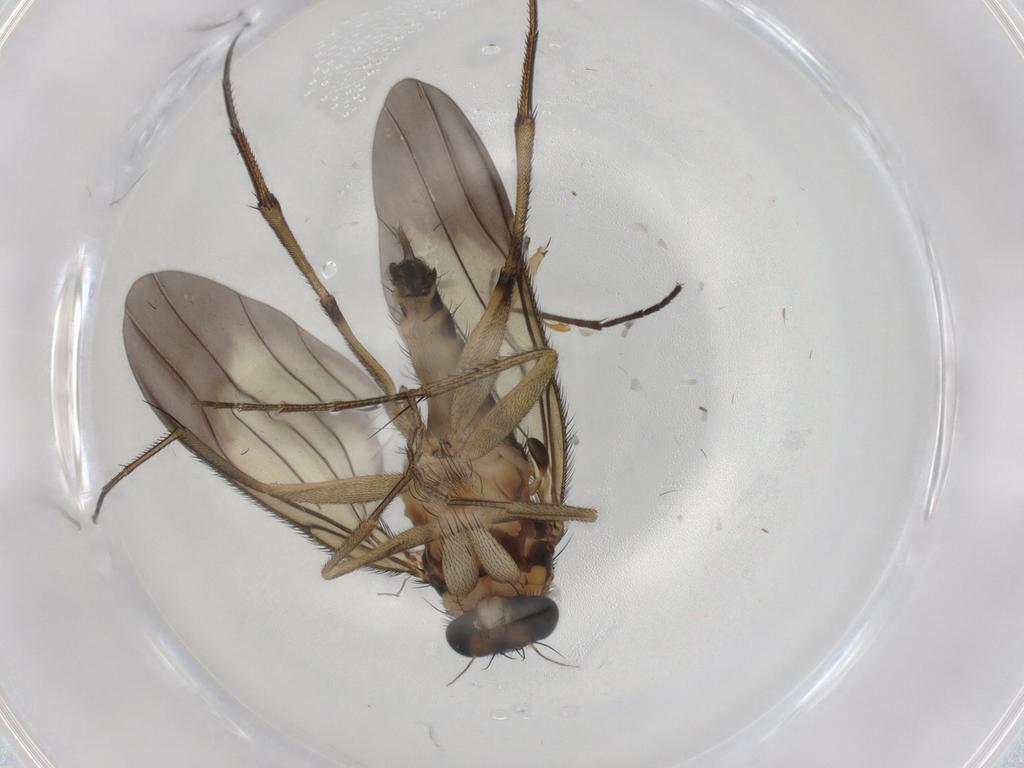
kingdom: Animalia
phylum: Arthropoda
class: Insecta
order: Diptera
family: Phoridae
